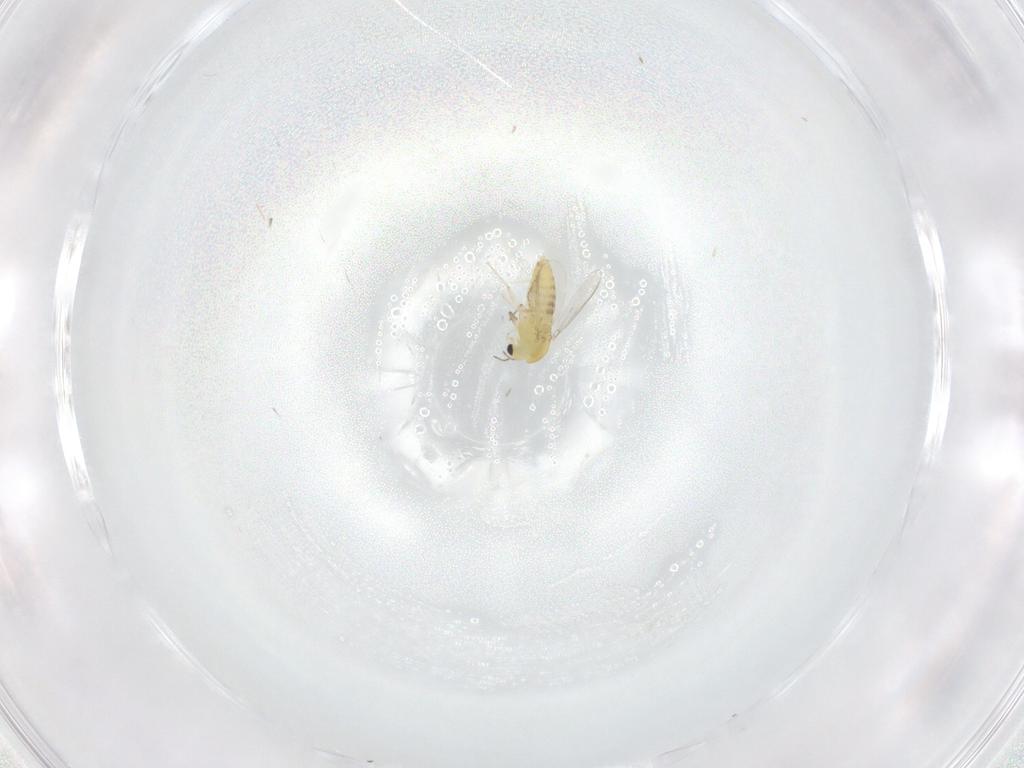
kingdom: Animalia
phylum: Arthropoda
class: Insecta
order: Diptera
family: Chironomidae
